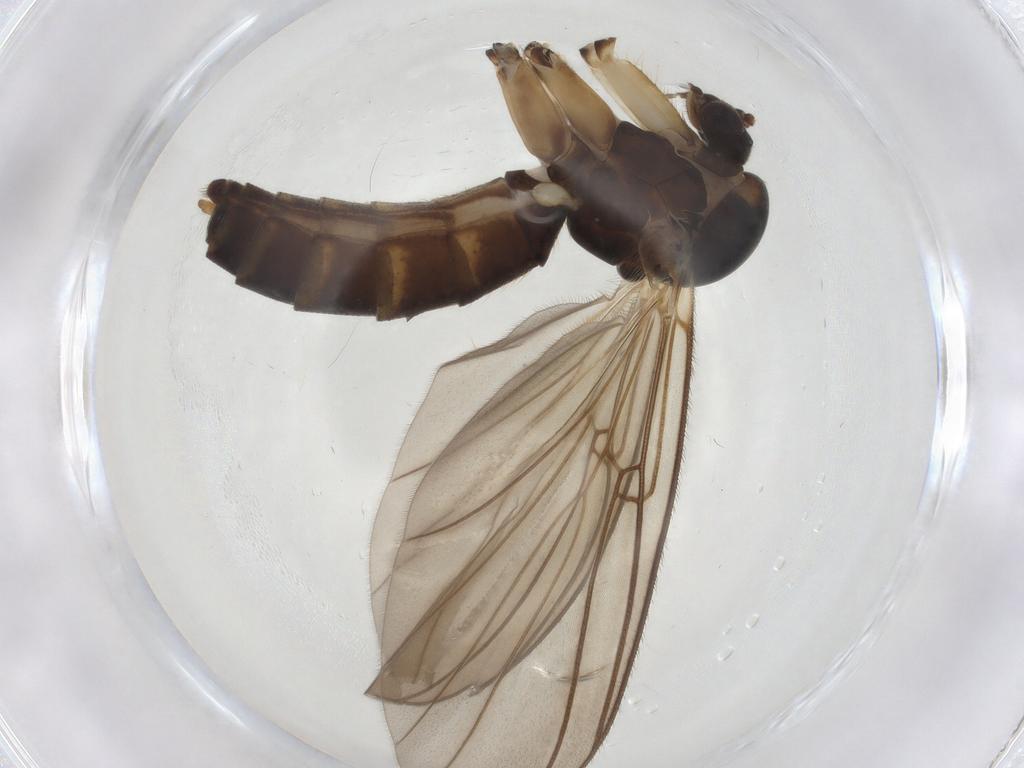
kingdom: Animalia
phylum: Arthropoda
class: Insecta
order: Diptera
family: Mycetophilidae
